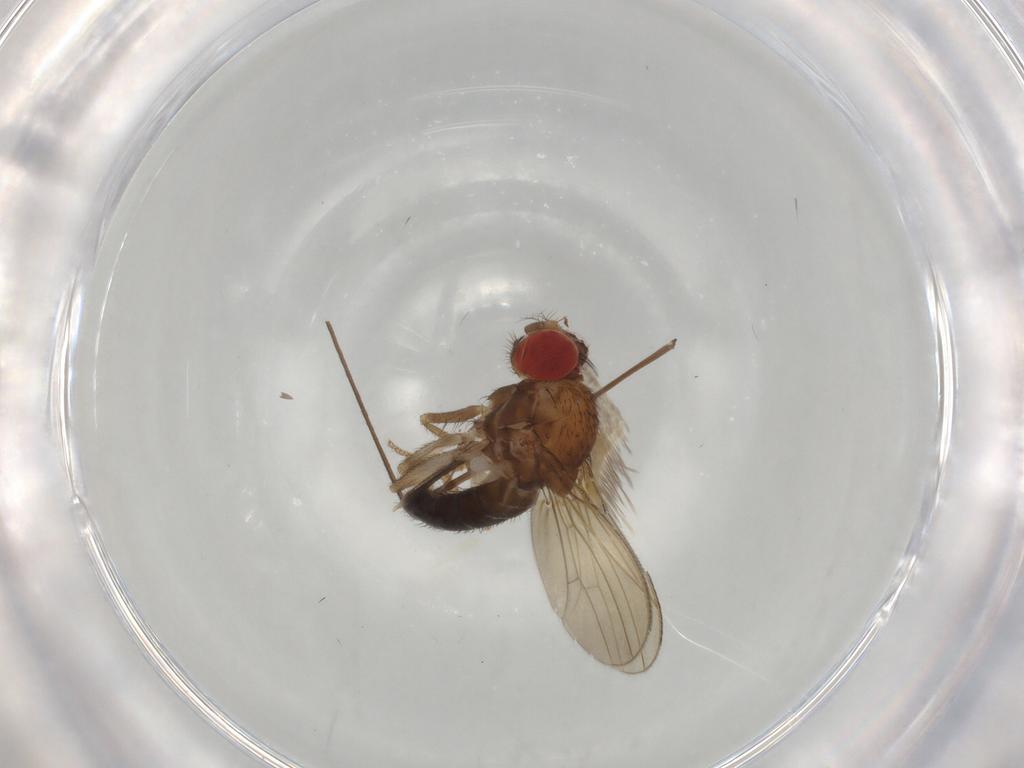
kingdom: Animalia
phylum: Arthropoda
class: Insecta
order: Diptera
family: Drosophilidae
